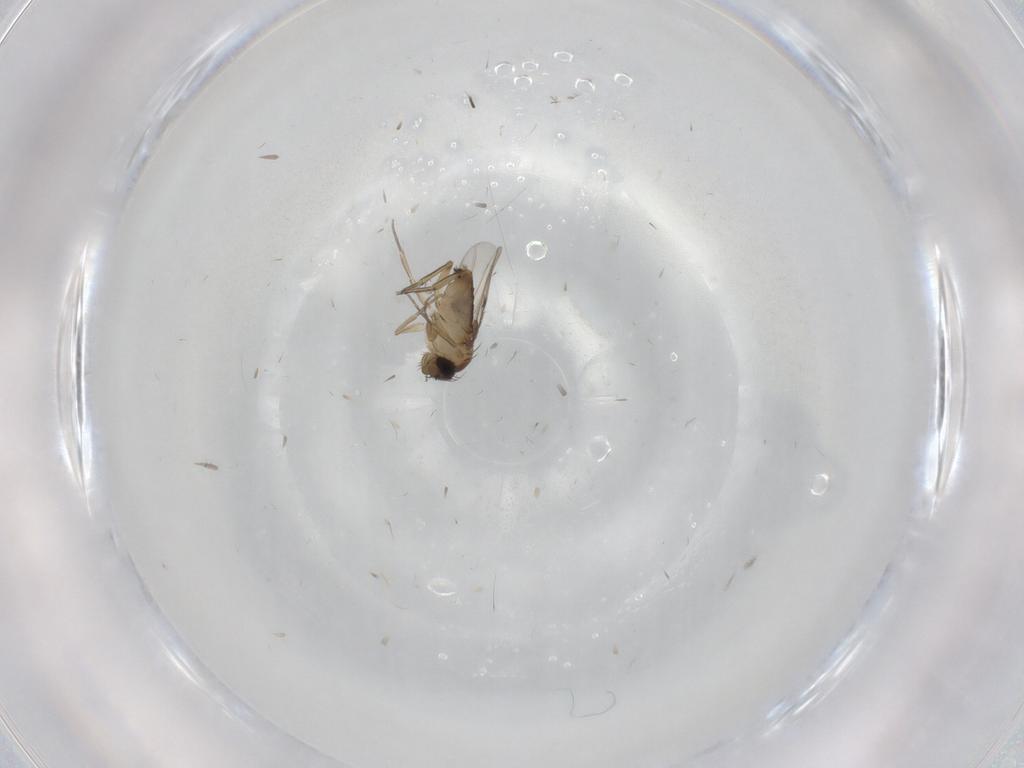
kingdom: Animalia
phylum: Arthropoda
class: Insecta
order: Diptera
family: Phoridae
